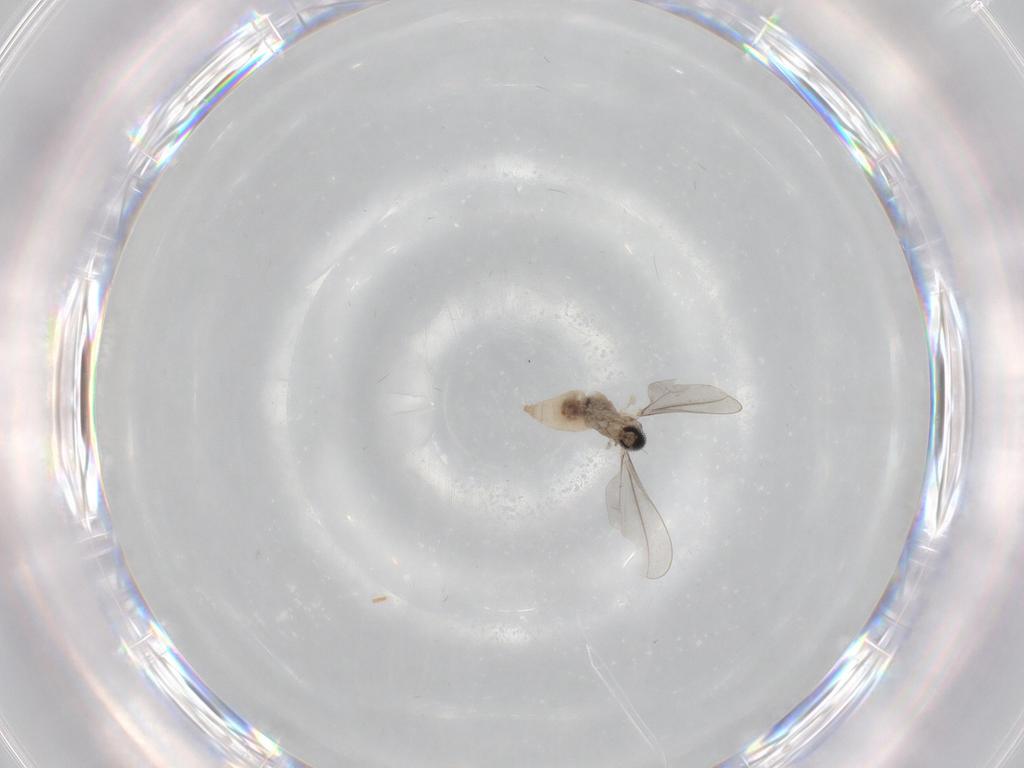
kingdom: Animalia
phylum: Arthropoda
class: Insecta
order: Diptera
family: Cecidomyiidae
